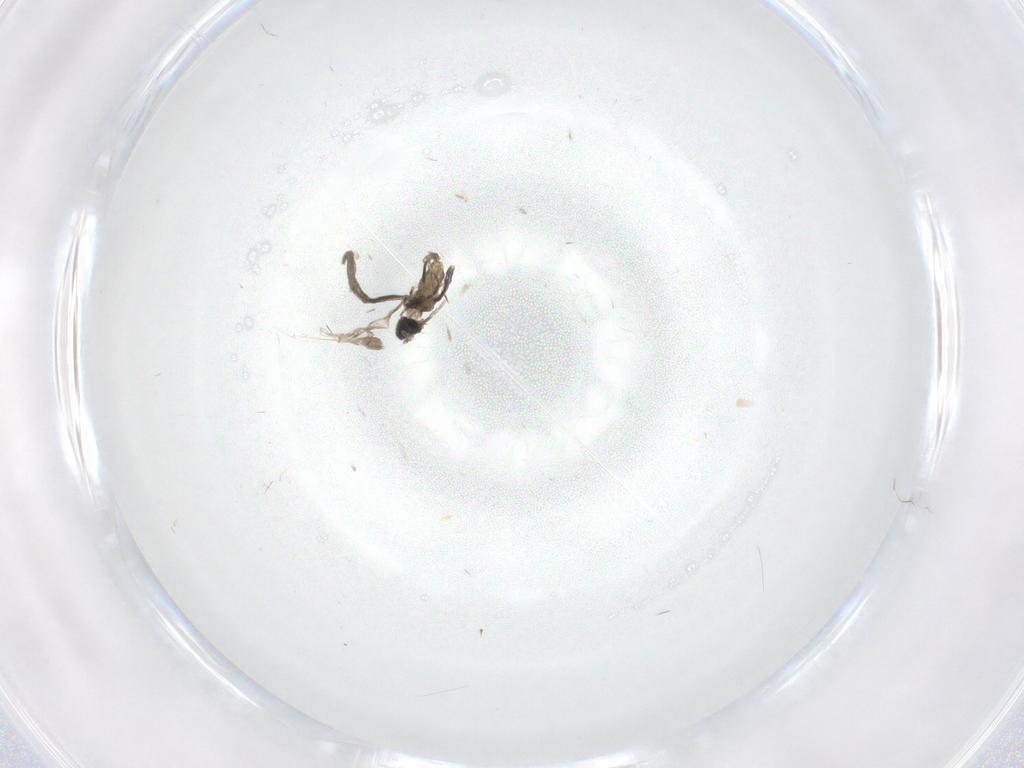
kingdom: Animalia
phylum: Arthropoda
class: Insecta
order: Diptera
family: Cecidomyiidae
